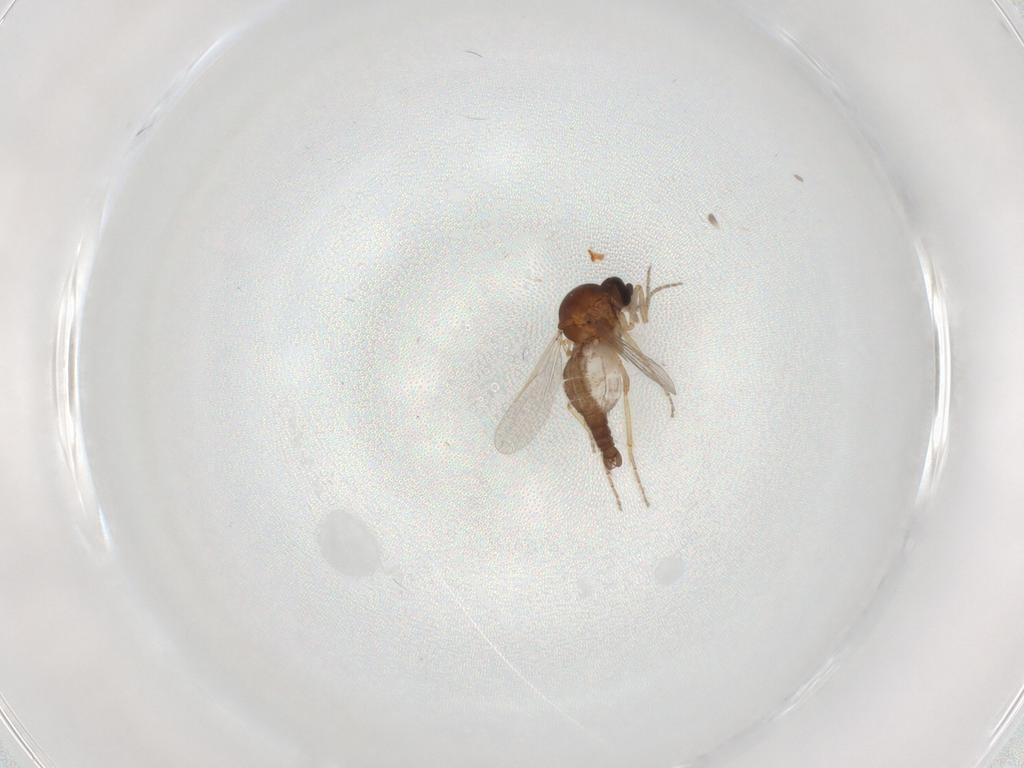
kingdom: Animalia
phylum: Arthropoda
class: Insecta
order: Diptera
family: Ceratopogonidae
